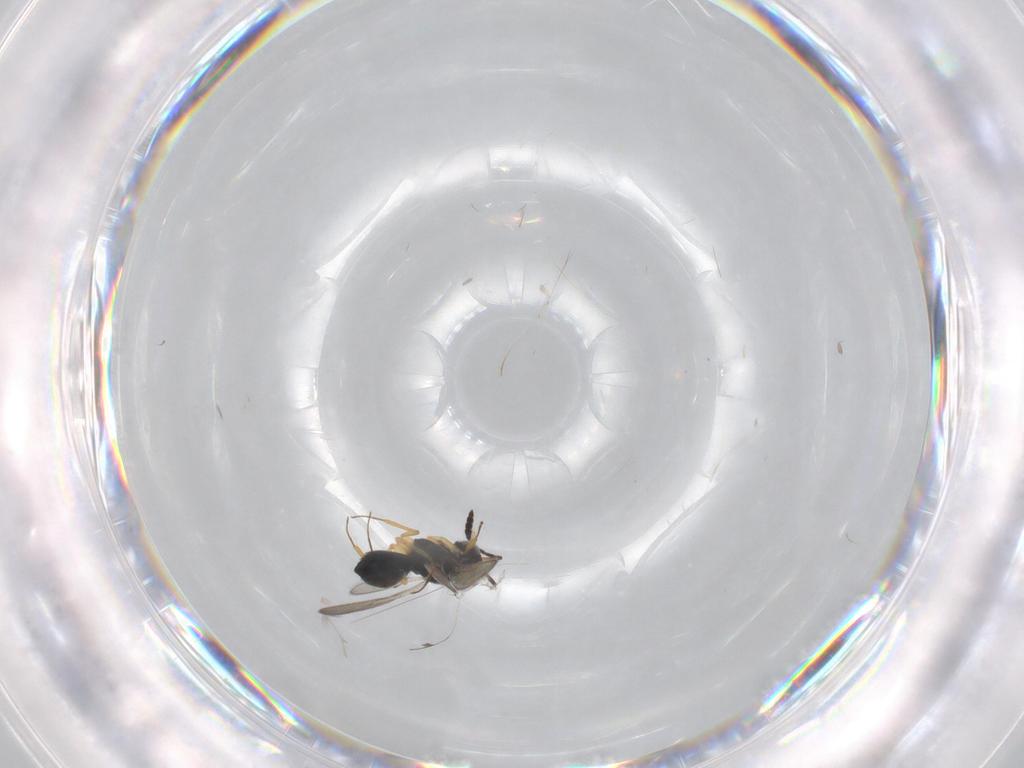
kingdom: Animalia
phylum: Arthropoda
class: Insecta
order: Hymenoptera
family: Scelionidae
